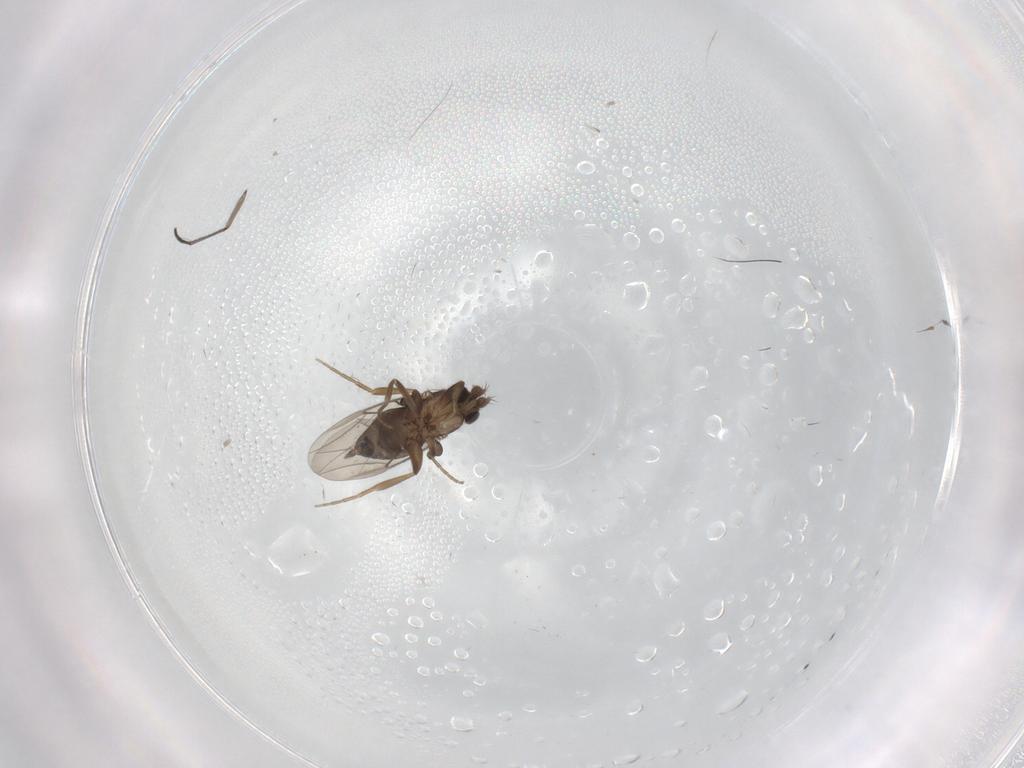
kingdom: Animalia
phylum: Arthropoda
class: Insecta
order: Diptera
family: Phoridae
